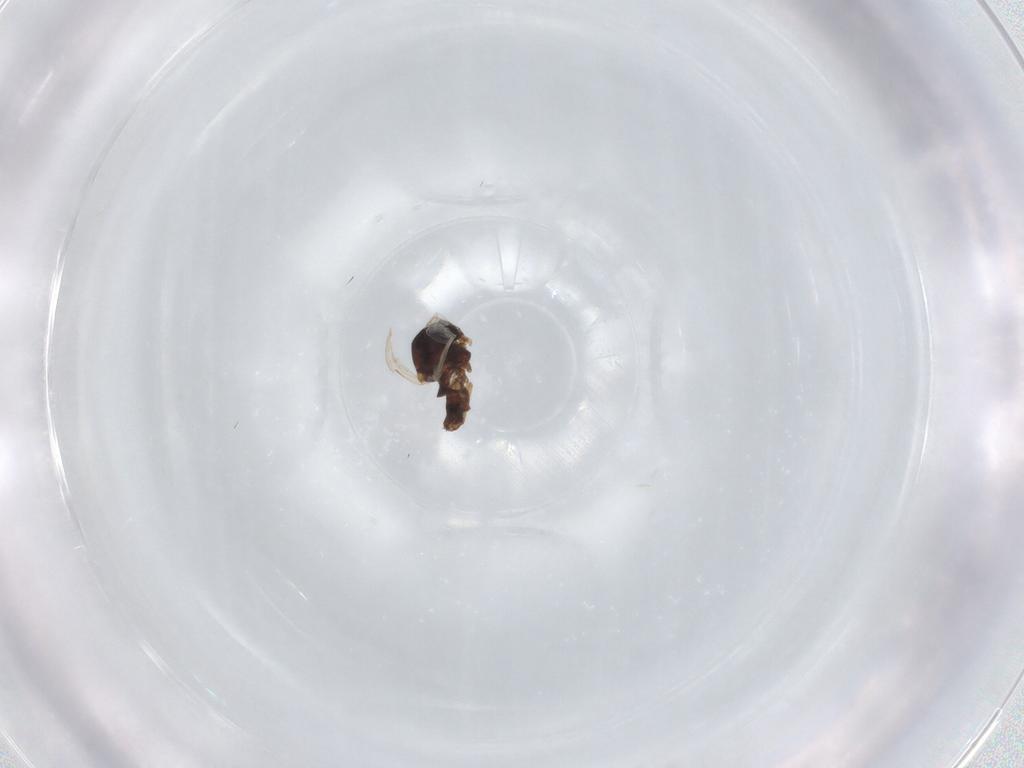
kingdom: Animalia
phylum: Arthropoda
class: Insecta
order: Diptera
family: Ceratopogonidae
